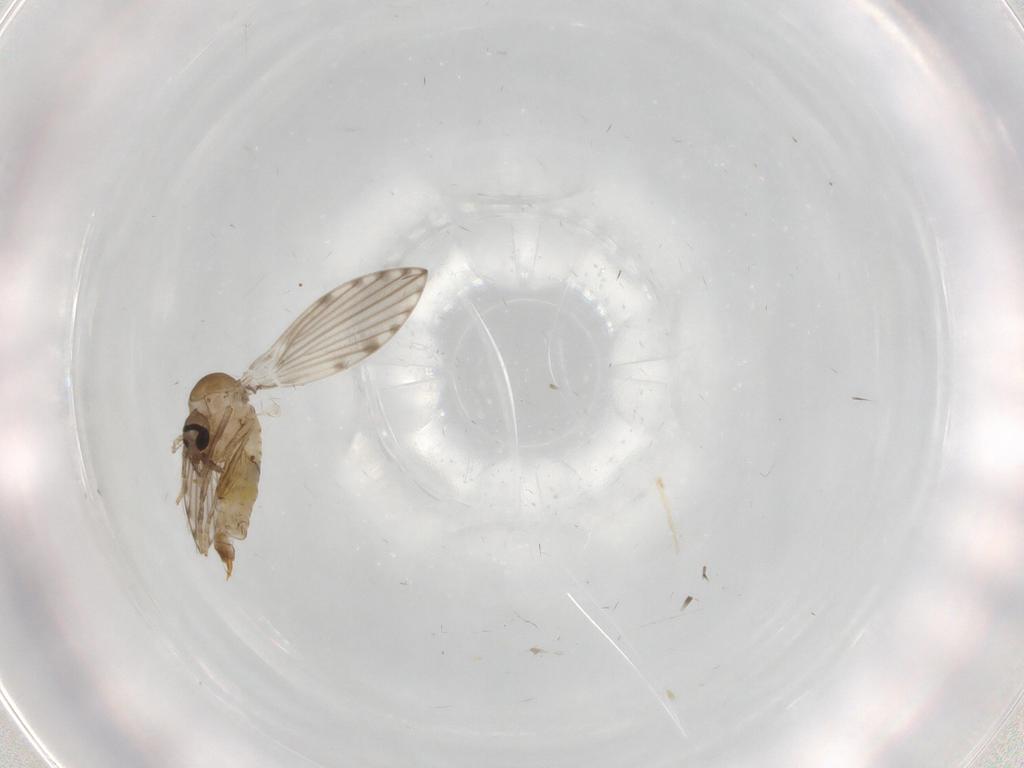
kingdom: Animalia
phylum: Arthropoda
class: Insecta
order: Diptera
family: Psychodidae
